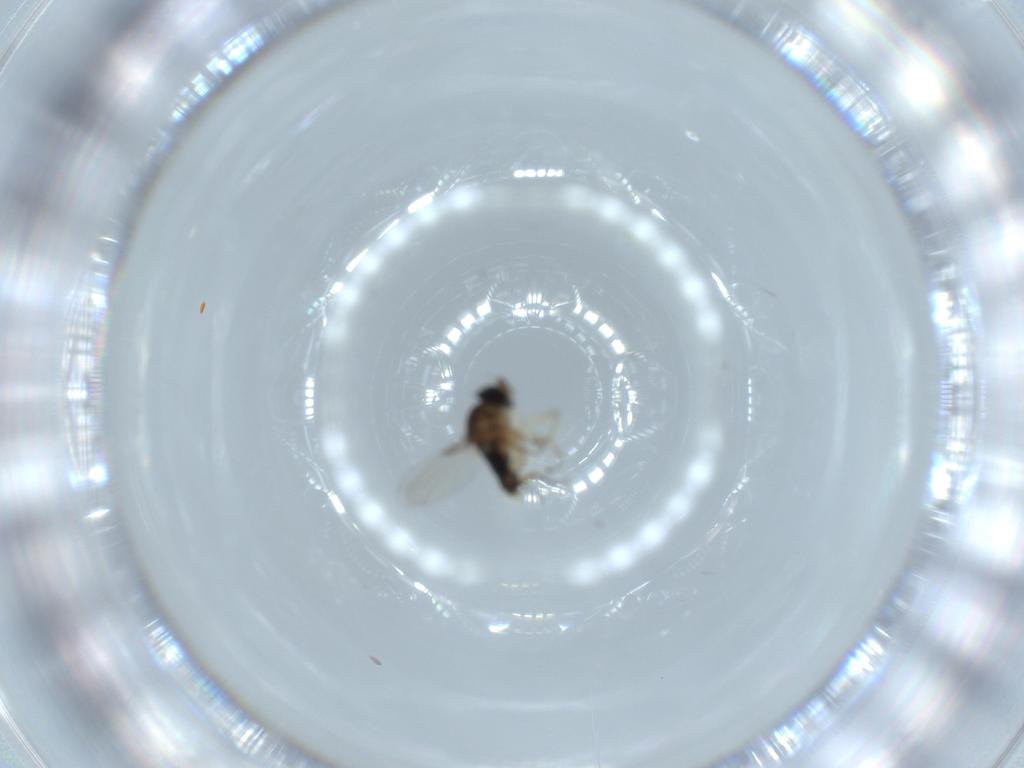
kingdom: Animalia
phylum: Arthropoda
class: Insecta
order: Diptera
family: Phoridae
